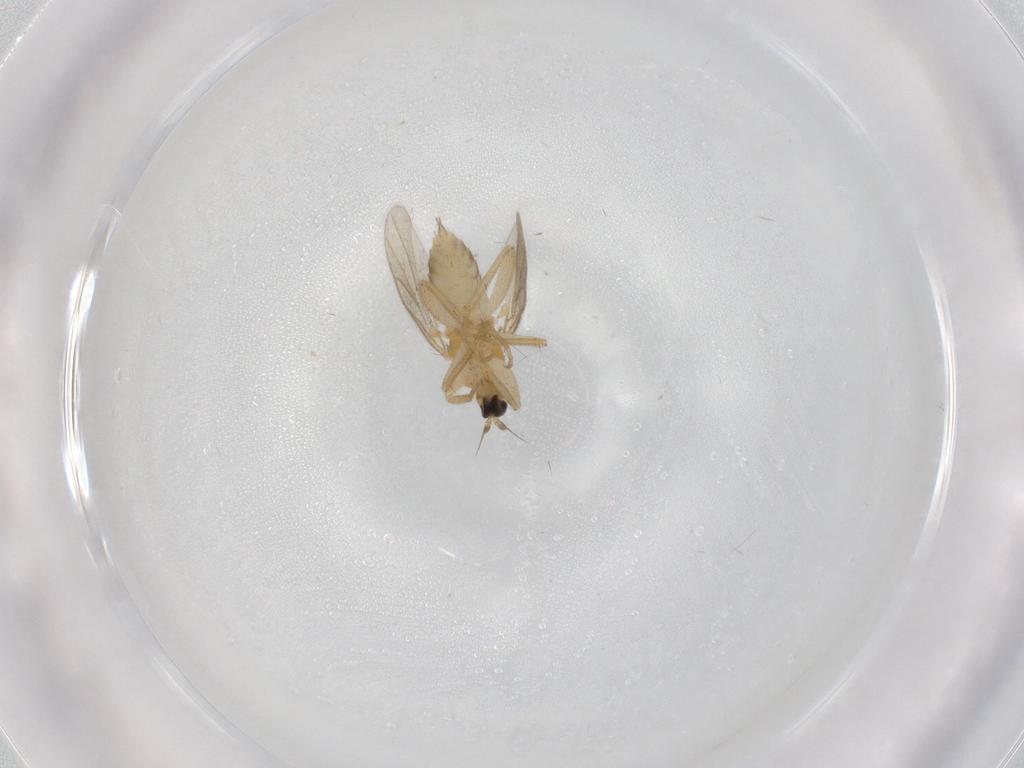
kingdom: Animalia
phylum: Arthropoda
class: Insecta
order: Diptera
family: Hybotidae
